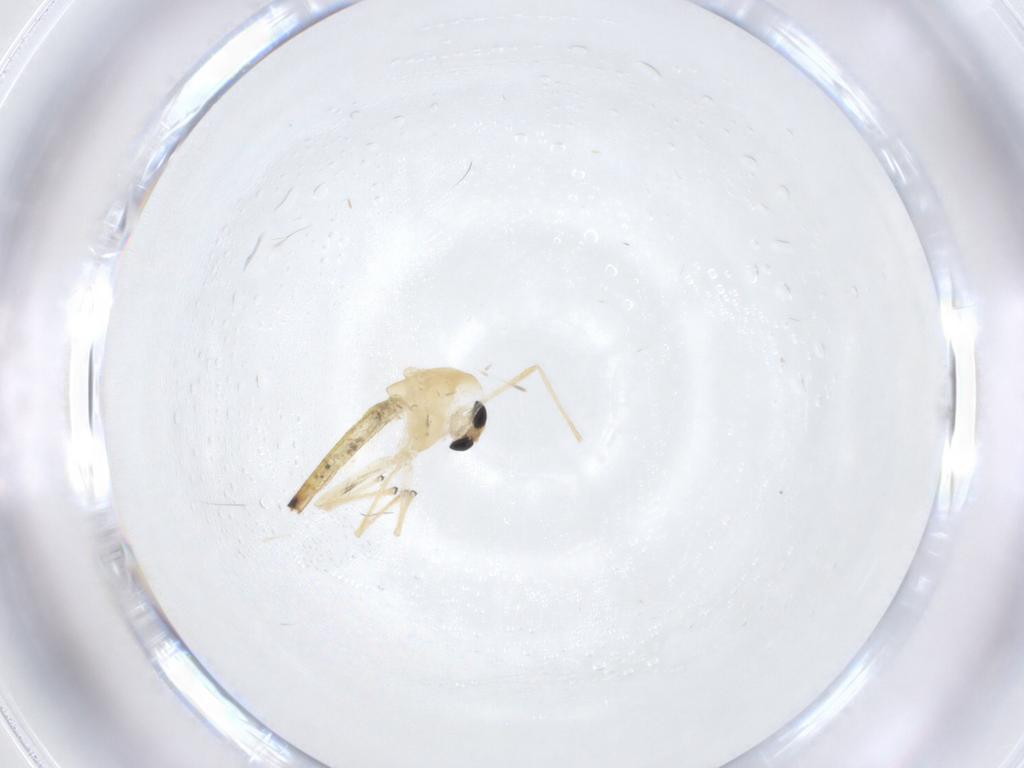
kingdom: Animalia
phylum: Arthropoda
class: Insecta
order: Diptera
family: Chironomidae
